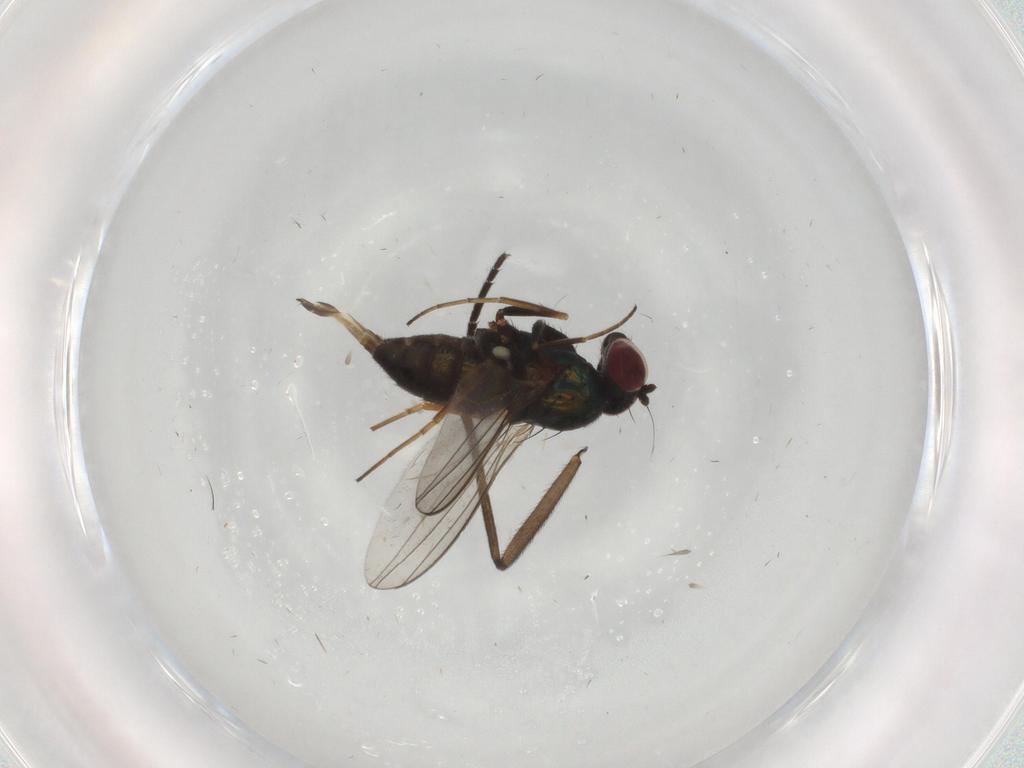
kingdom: Animalia
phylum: Arthropoda
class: Insecta
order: Diptera
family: Dolichopodidae
